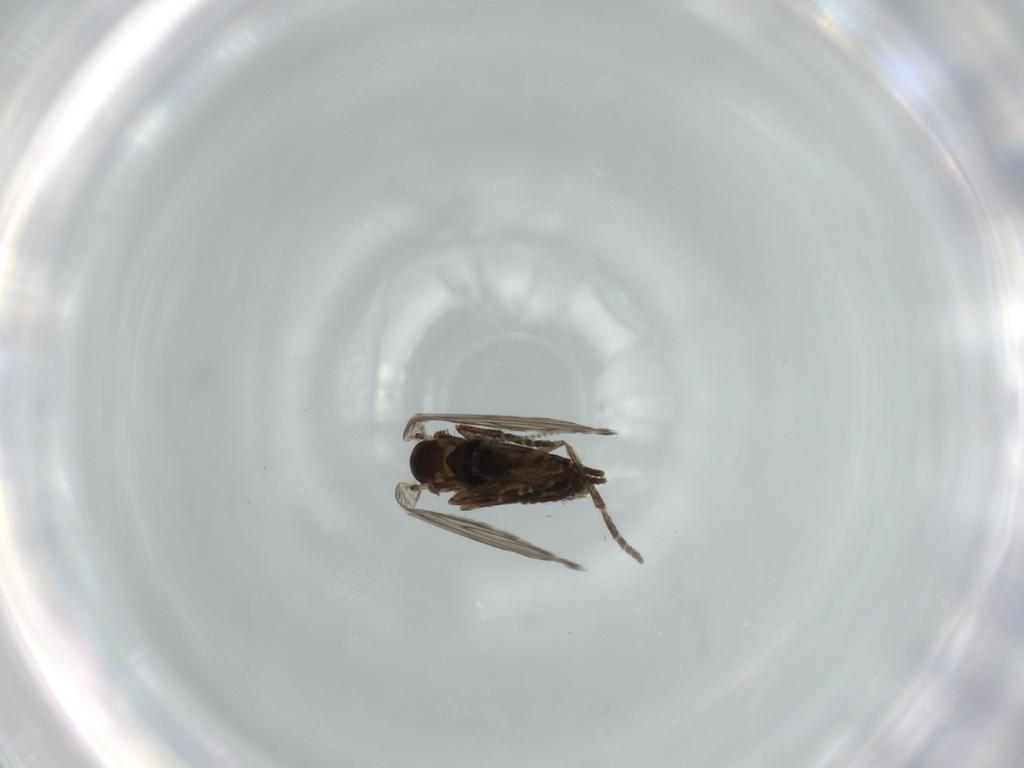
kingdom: Animalia
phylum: Arthropoda
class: Insecta
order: Diptera
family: Psychodidae
